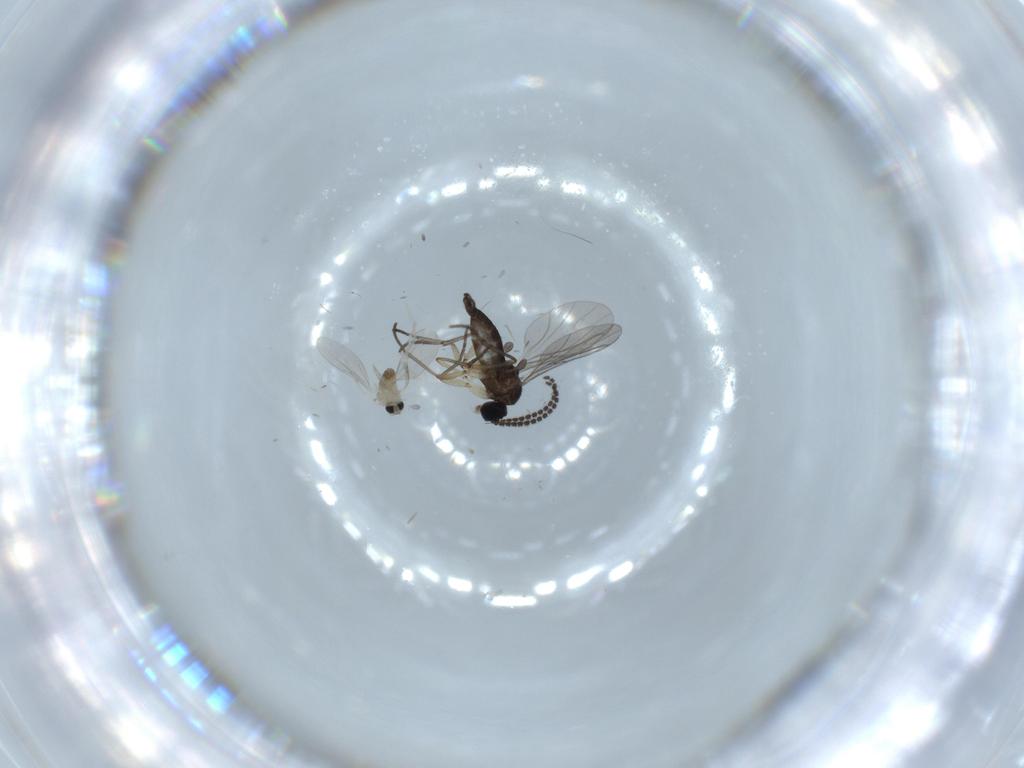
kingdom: Animalia
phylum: Arthropoda
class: Insecta
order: Diptera
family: Cecidomyiidae
